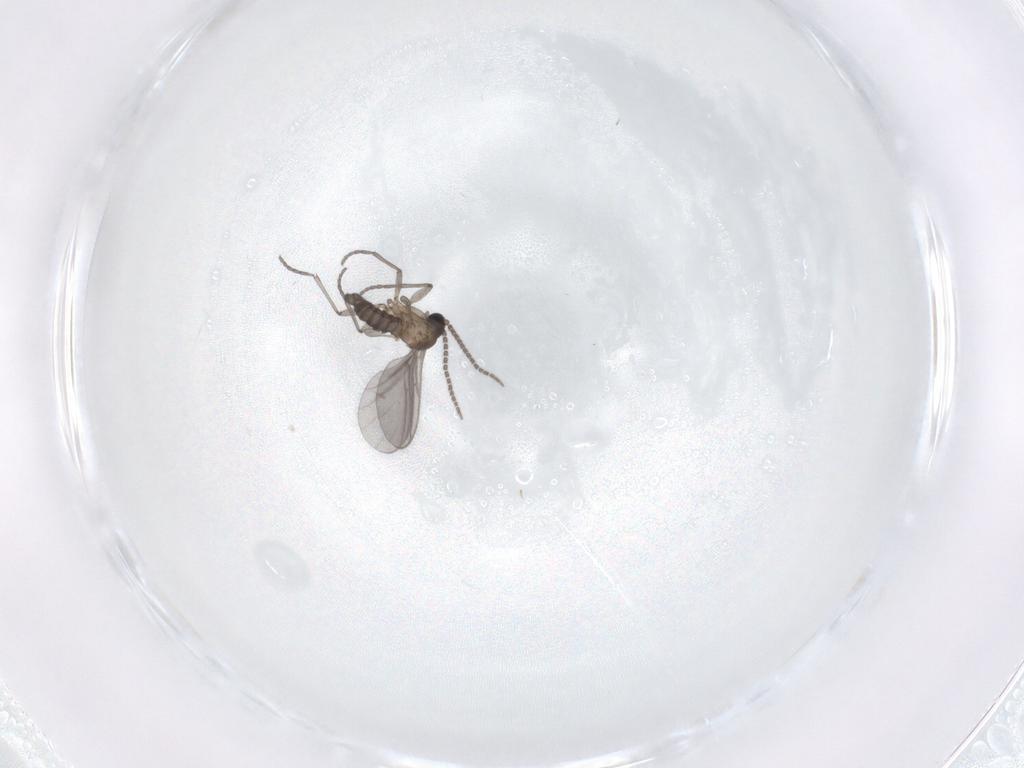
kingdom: Animalia
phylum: Arthropoda
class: Insecta
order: Diptera
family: Sciaridae
